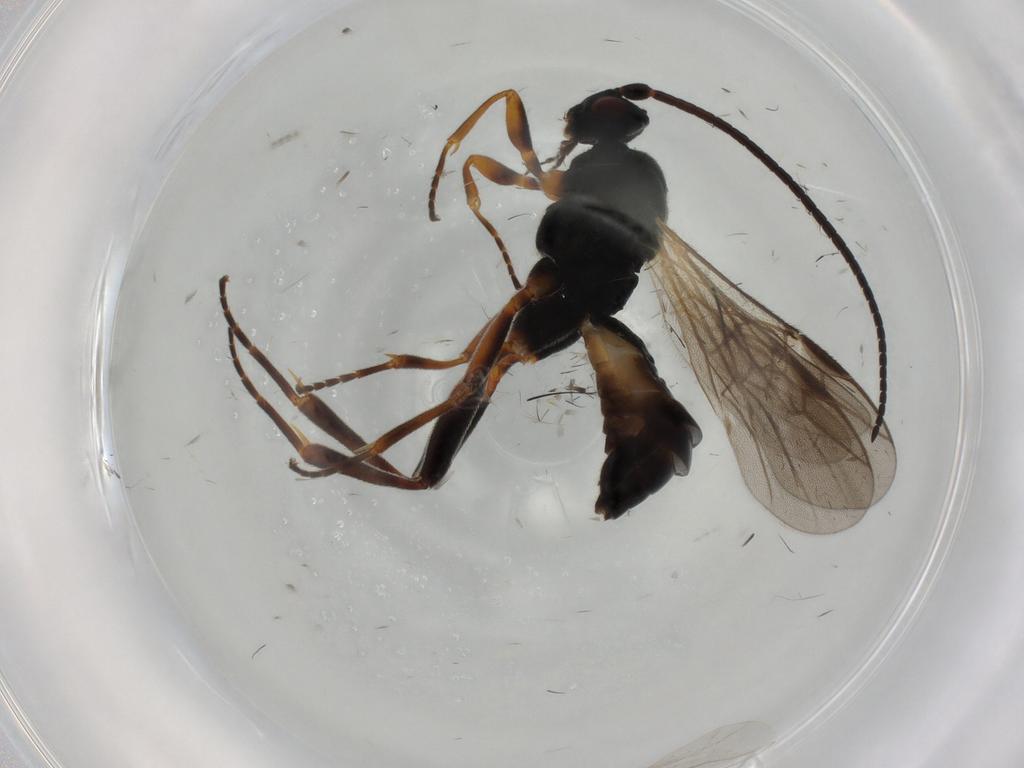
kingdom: Animalia
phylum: Arthropoda
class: Insecta
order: Hymenoptera
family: Braconidae
